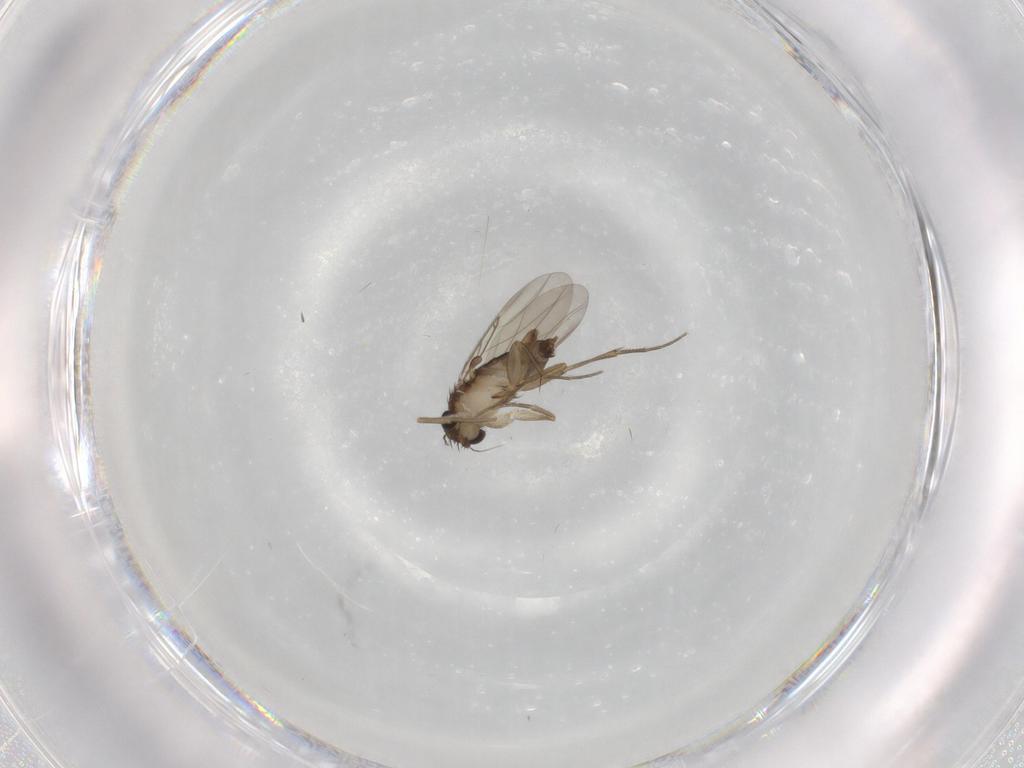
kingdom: Animalia
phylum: Arthropoda
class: Insecta
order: Diptera
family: Phoridae
